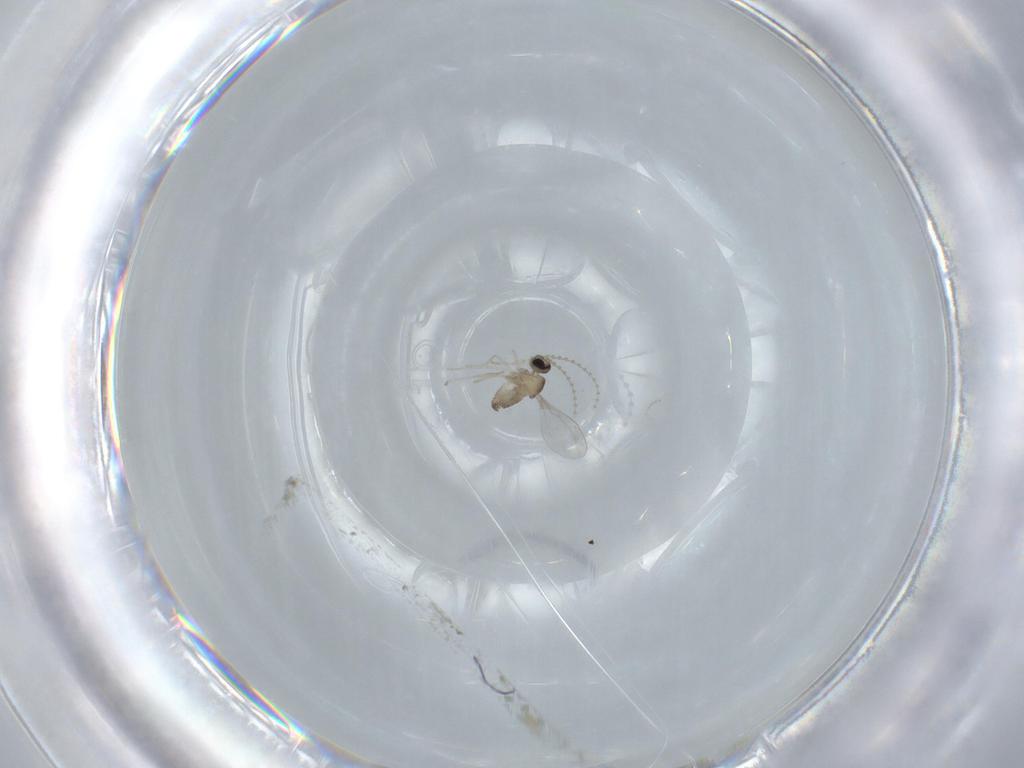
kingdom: Animalia
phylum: Arthropoda
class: Insecta
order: Diptera
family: Cecidomyiidae
